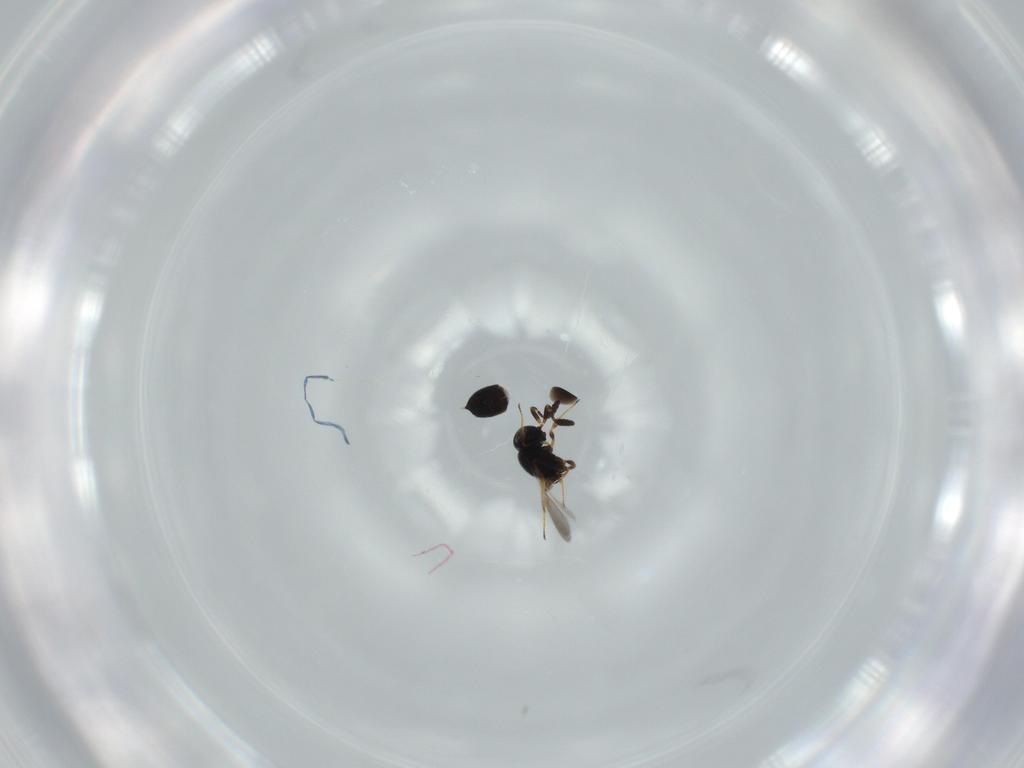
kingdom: Animalia
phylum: Arthropoda
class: Insecta
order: Hymenoptera
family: Scelionidae
